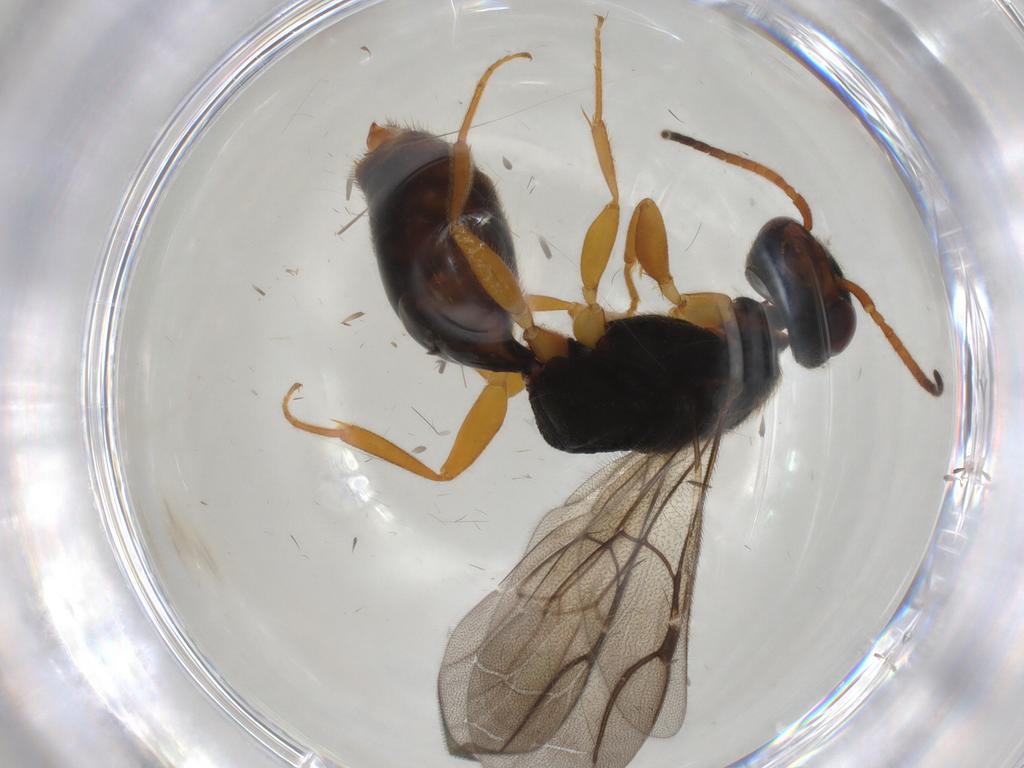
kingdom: Animalia
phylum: Arthropoda
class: Insecta
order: Hymenoptera
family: Bethylidae
